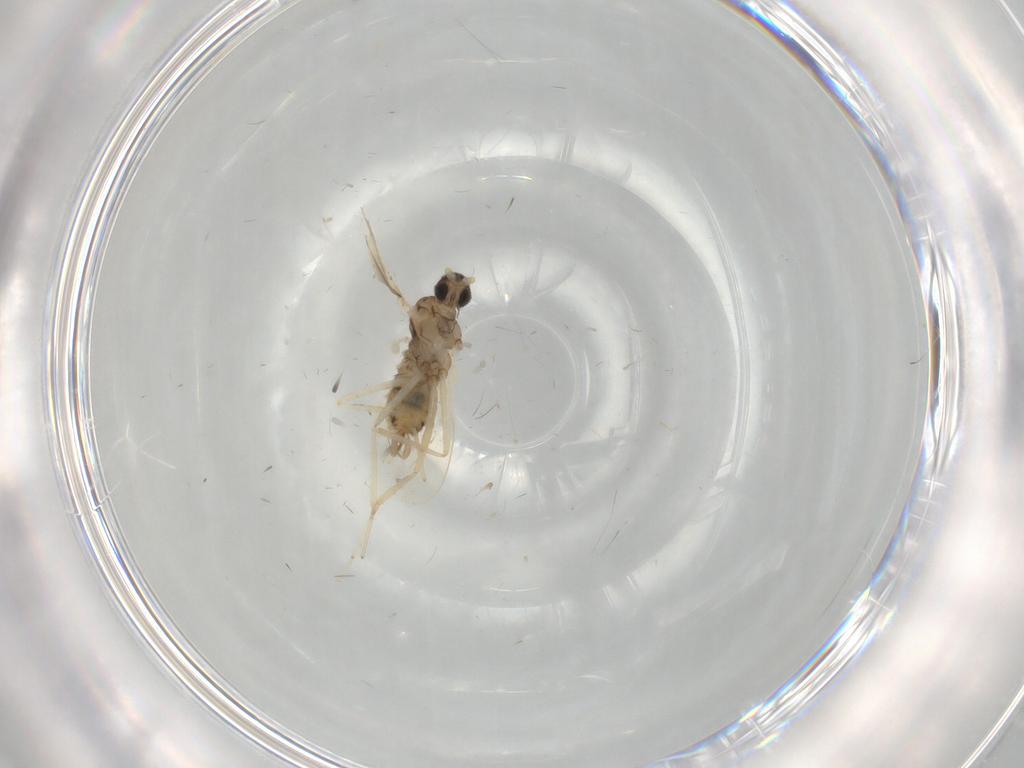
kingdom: Animalia
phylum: Arthropoda
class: Insecta
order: Diptera
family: Cecidomyiidae
